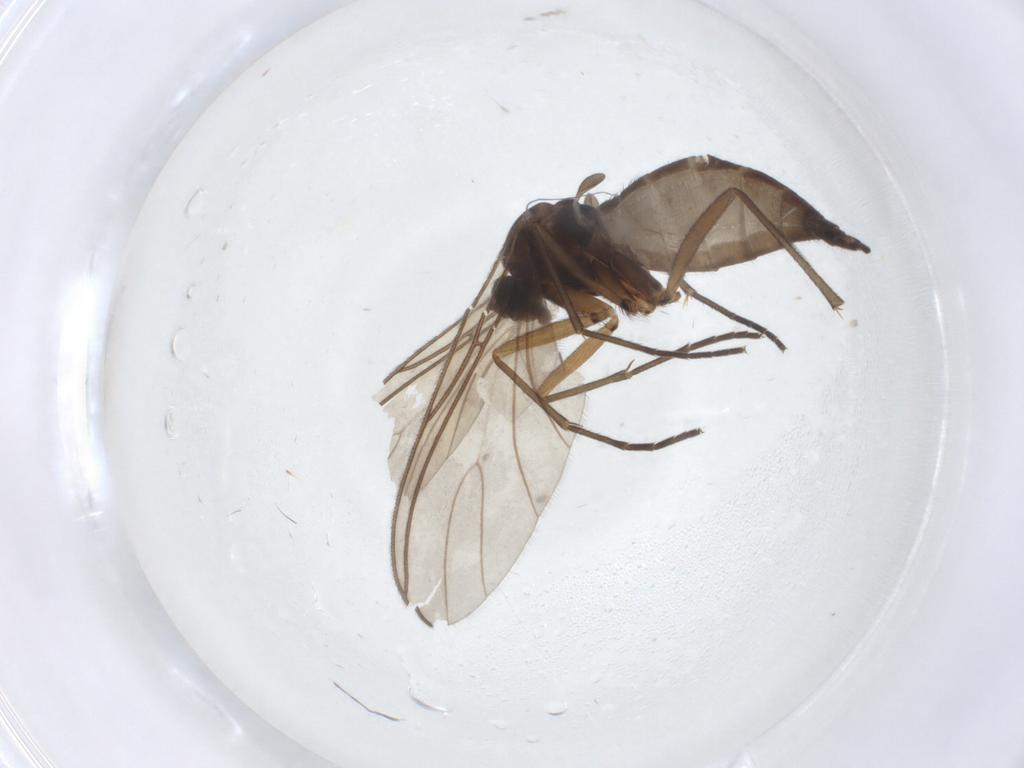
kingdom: Animalia
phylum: Arthropoda
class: Insecta
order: Diptera
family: Sciaridae
